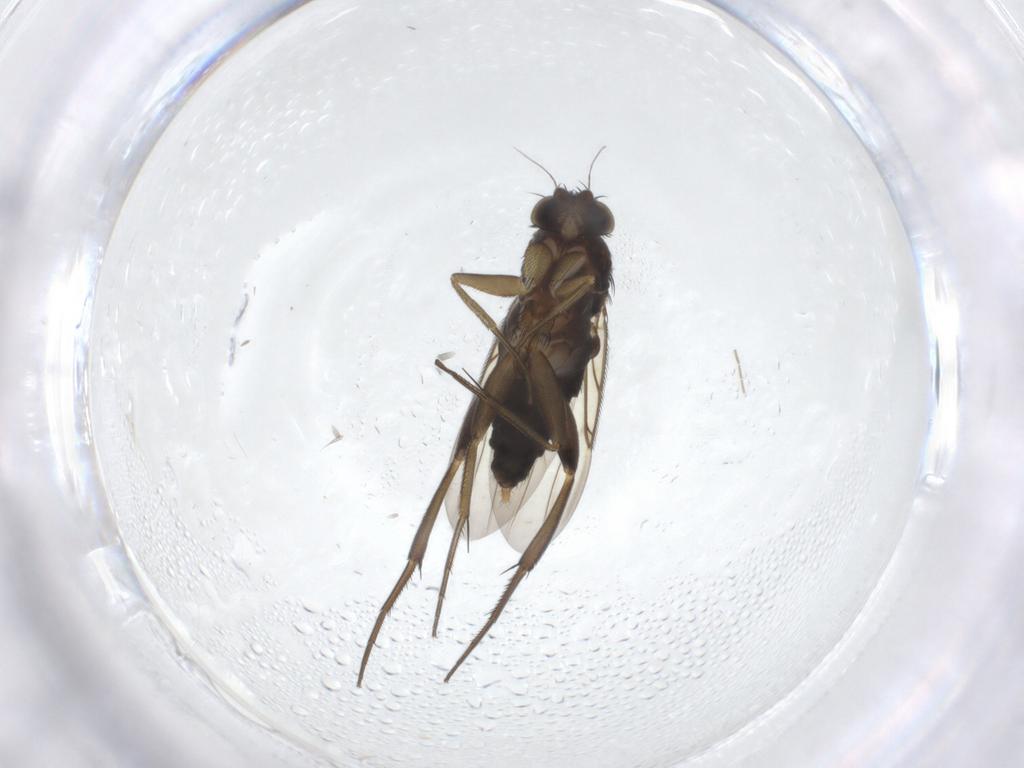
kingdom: Animalia
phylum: Arthropoda
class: Insecta
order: Diptera
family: Phoridae
